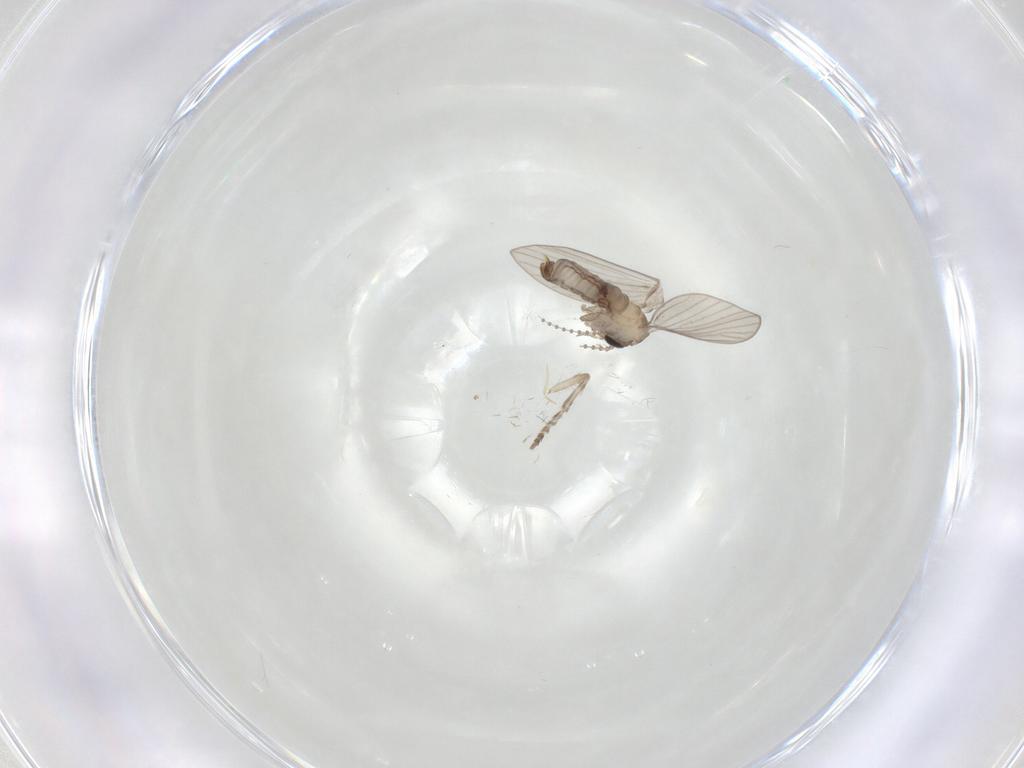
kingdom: Animalia
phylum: Arthropoda
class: Insecta
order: Diptera
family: Psychodidae
